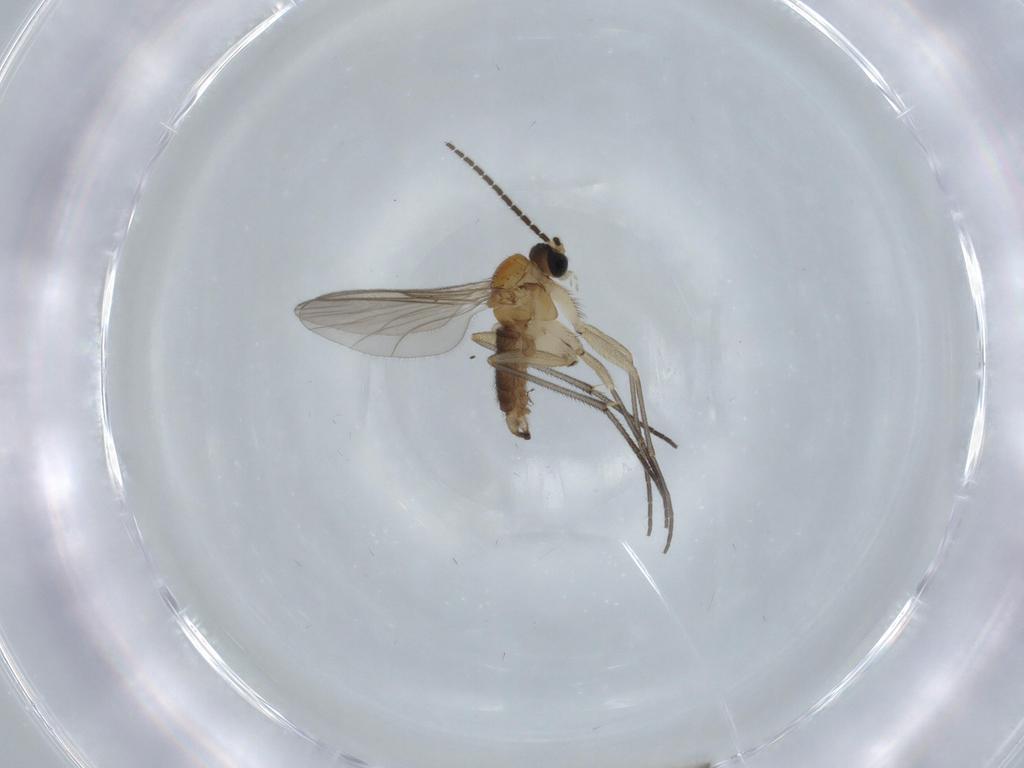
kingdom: Animalia
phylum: Arthropoda
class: Insecta
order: Diptera
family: Sciaridae
